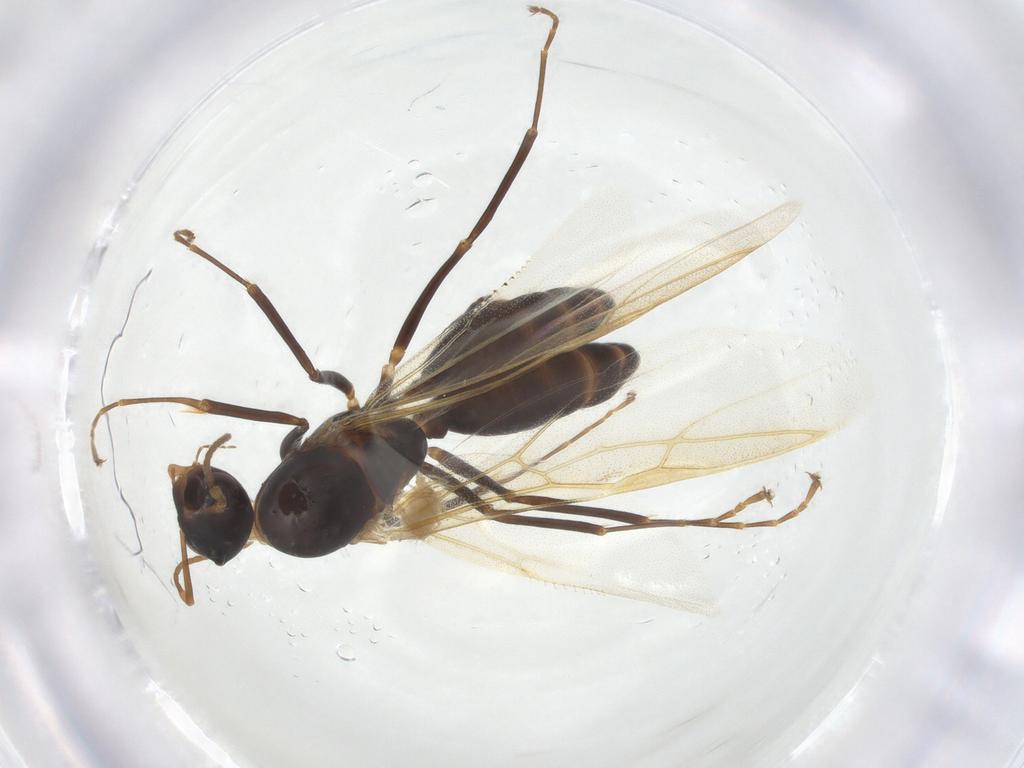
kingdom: Animalia
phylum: Arthropoda
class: Insecta
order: Hymenoptera
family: Formicidae
